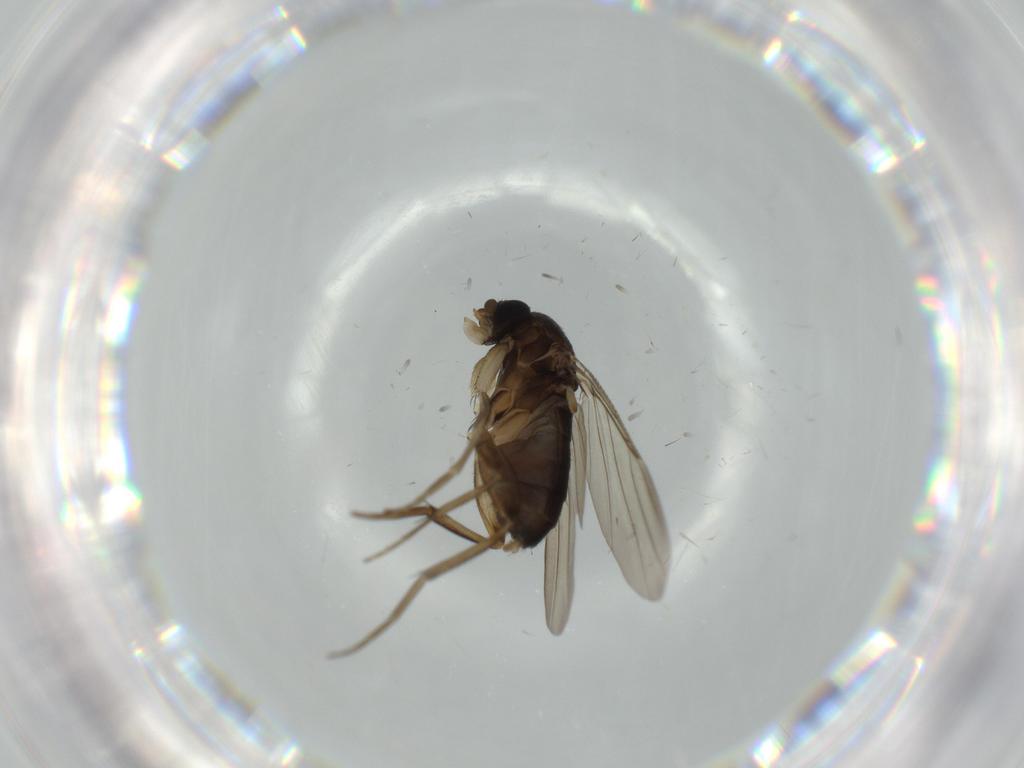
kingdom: Animalia
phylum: Arthropoda
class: Insecta
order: Diptera
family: Phoridae
